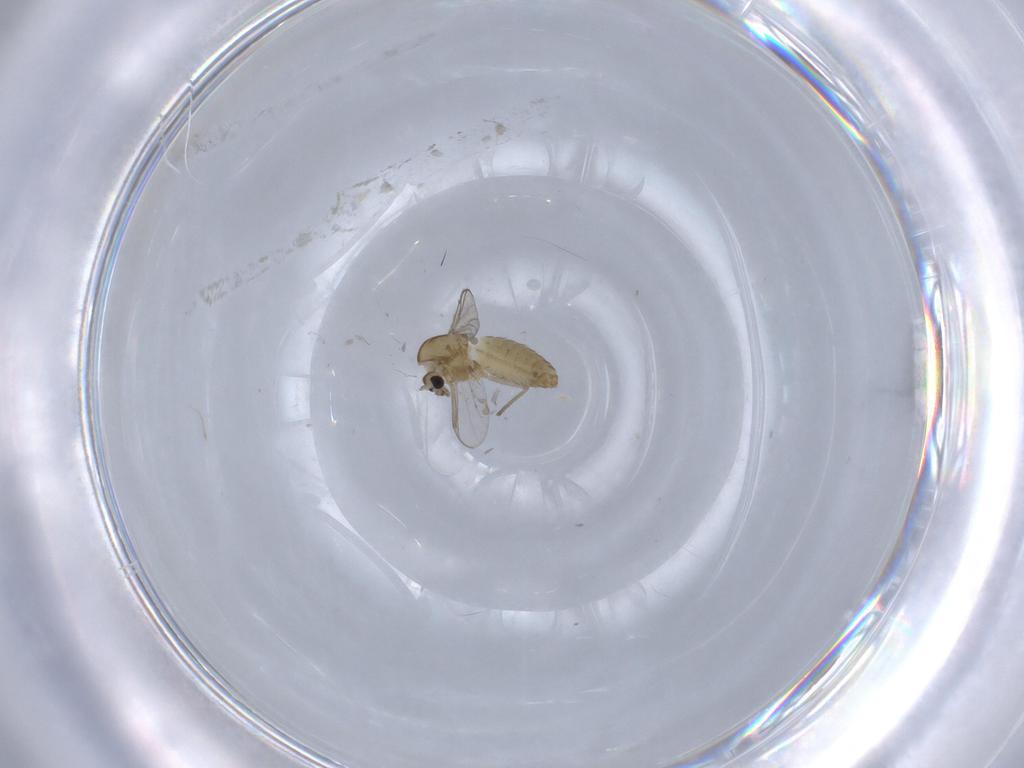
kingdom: Animalia
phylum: Arthropoda
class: Insecta
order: Diptera
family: Chironomidae
